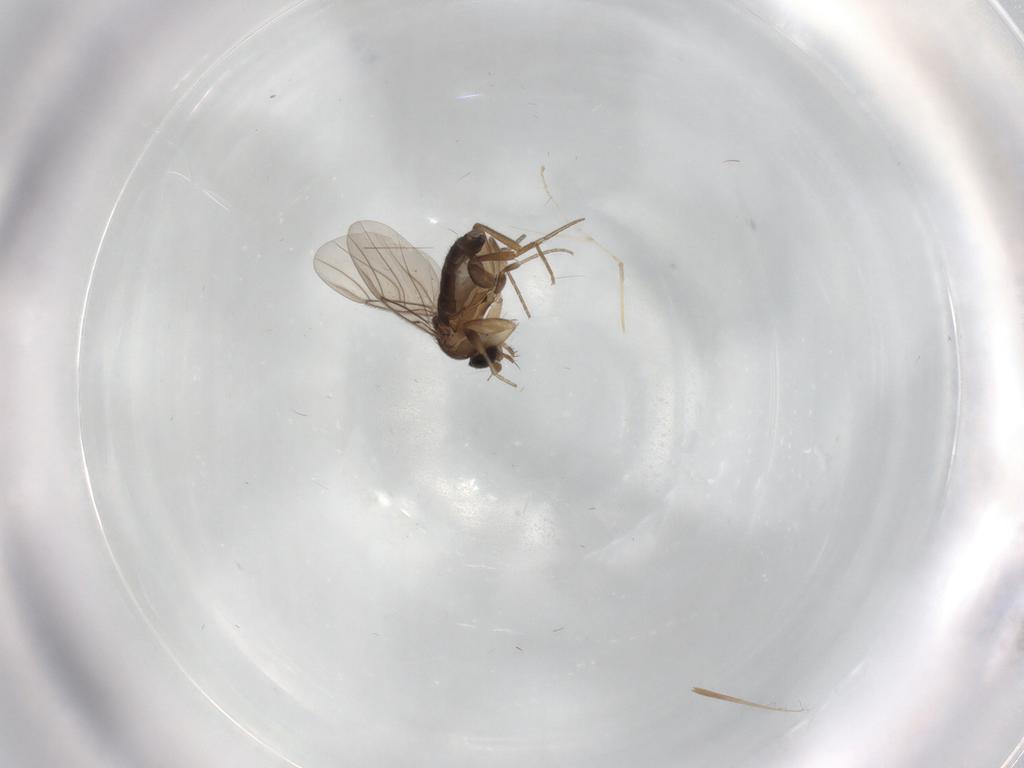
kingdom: Animalia
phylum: Arthropoda
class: Insecta
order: Diptera
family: Phoridae
